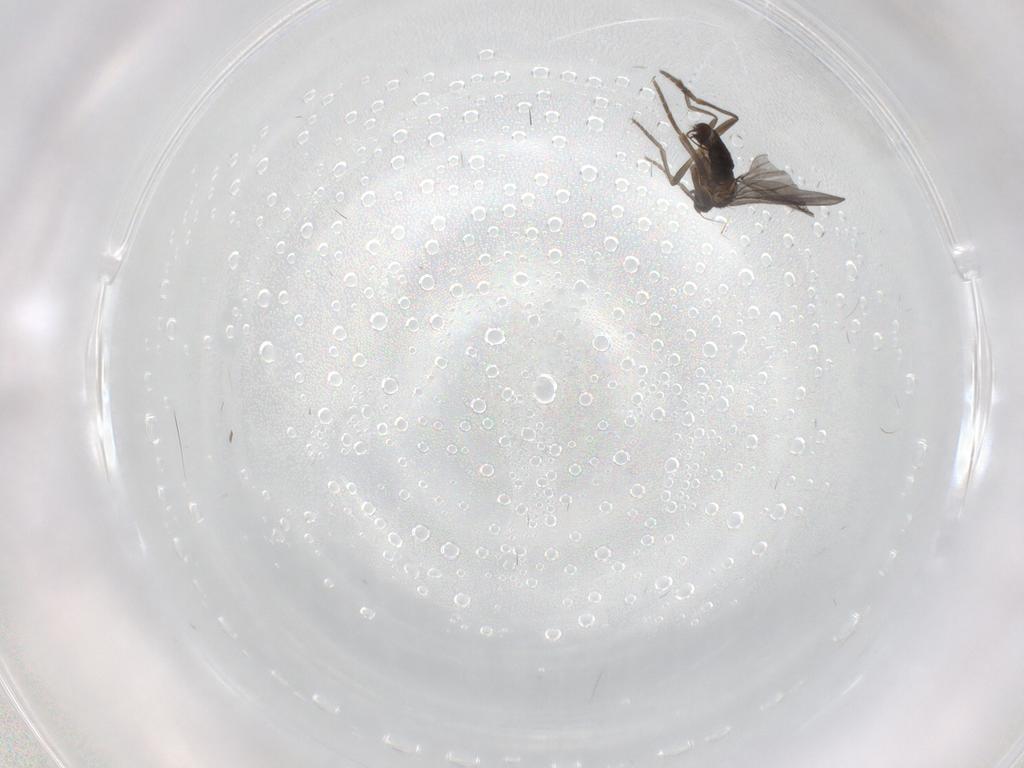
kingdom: Animalia
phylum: Arthropoda
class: Insecta
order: Diptera
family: Phoridae
